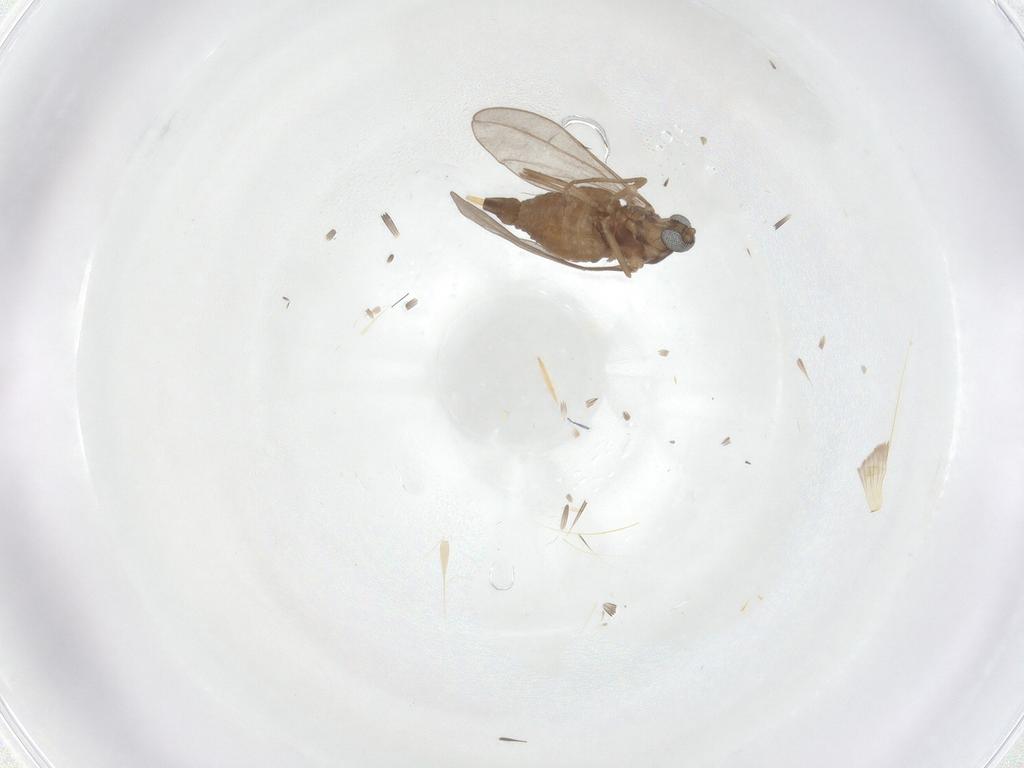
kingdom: Animalia
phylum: Arthropoda
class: Insecta
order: Diptera
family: Cecidomyiidae
